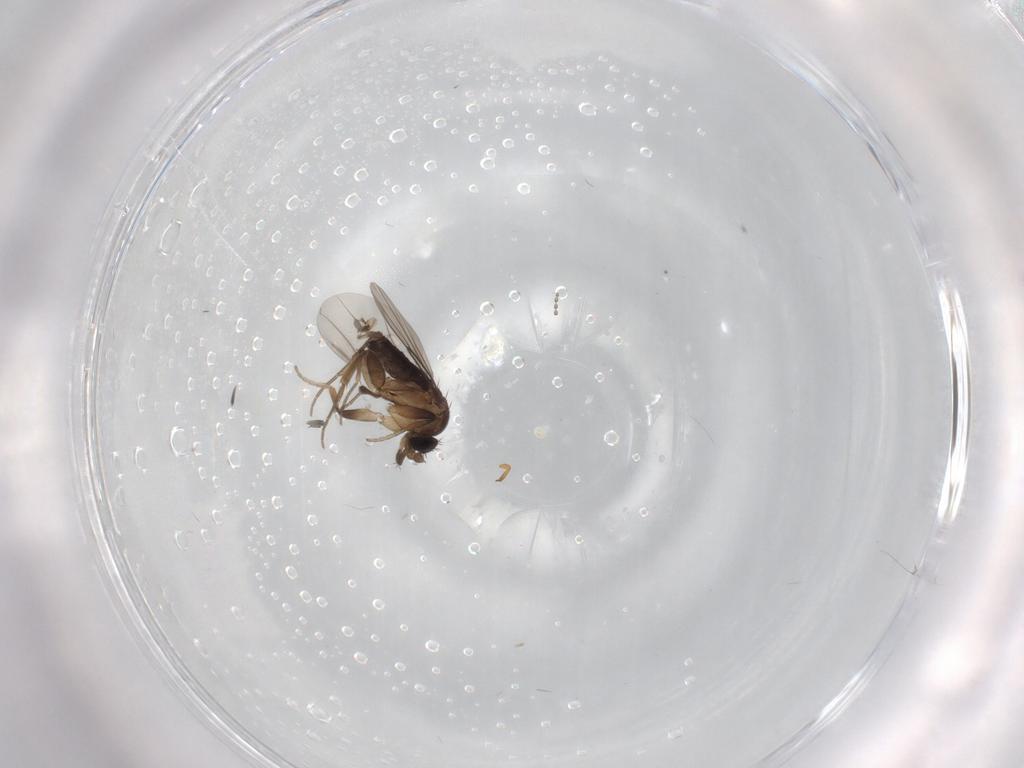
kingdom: Animalia
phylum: Arthropoda
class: Insecta
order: Diptera
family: Phoridae
